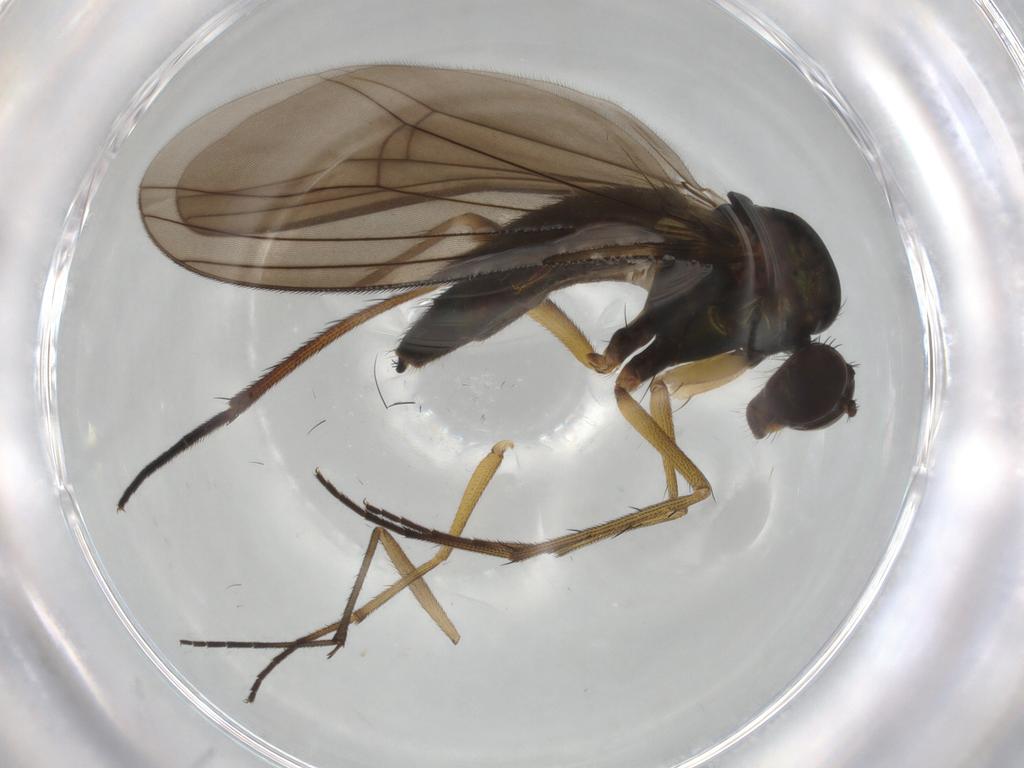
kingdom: Animalia
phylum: Arthropoda
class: Insecta
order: Diptera
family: Dolichopodidae
